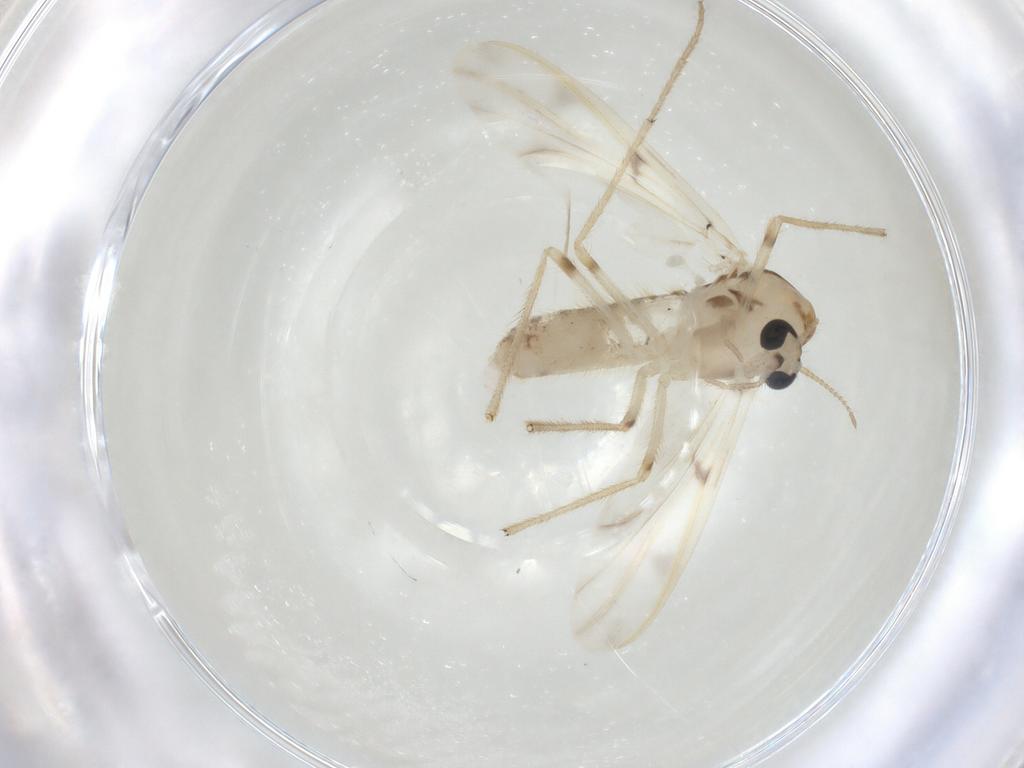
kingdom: Animalia
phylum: Arthropoda
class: Insecta
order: Diptera
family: Chironomidae
